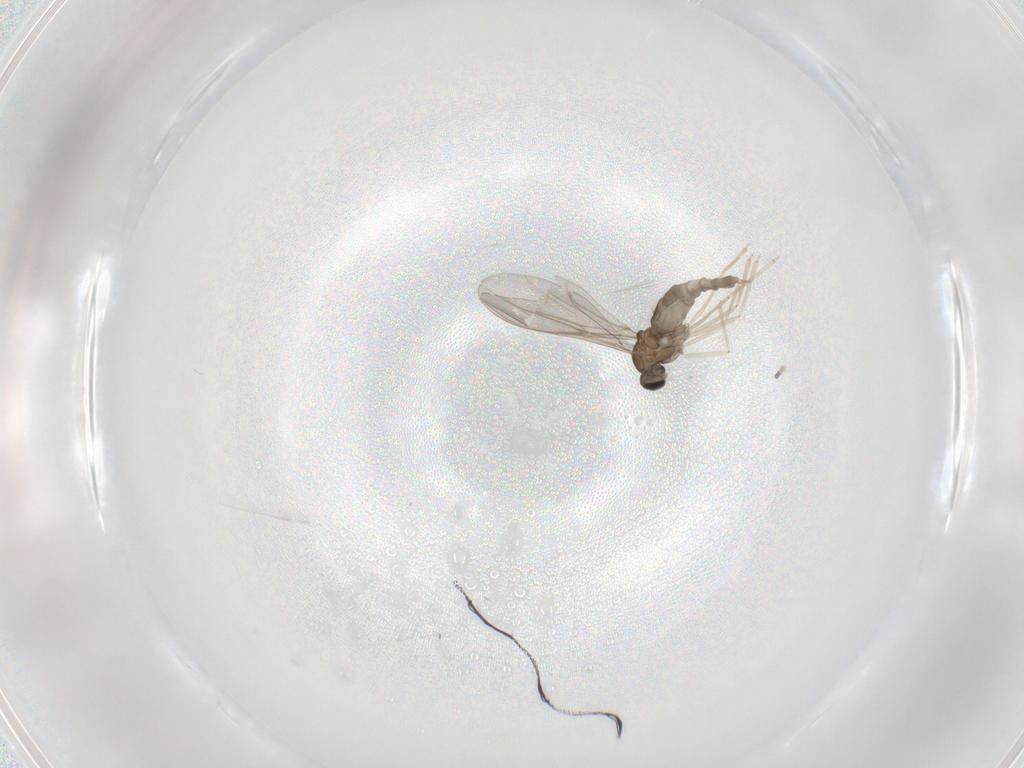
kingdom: Animalia
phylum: Arthropoda
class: Insecta
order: Diptera
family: Cecidomyiidae
